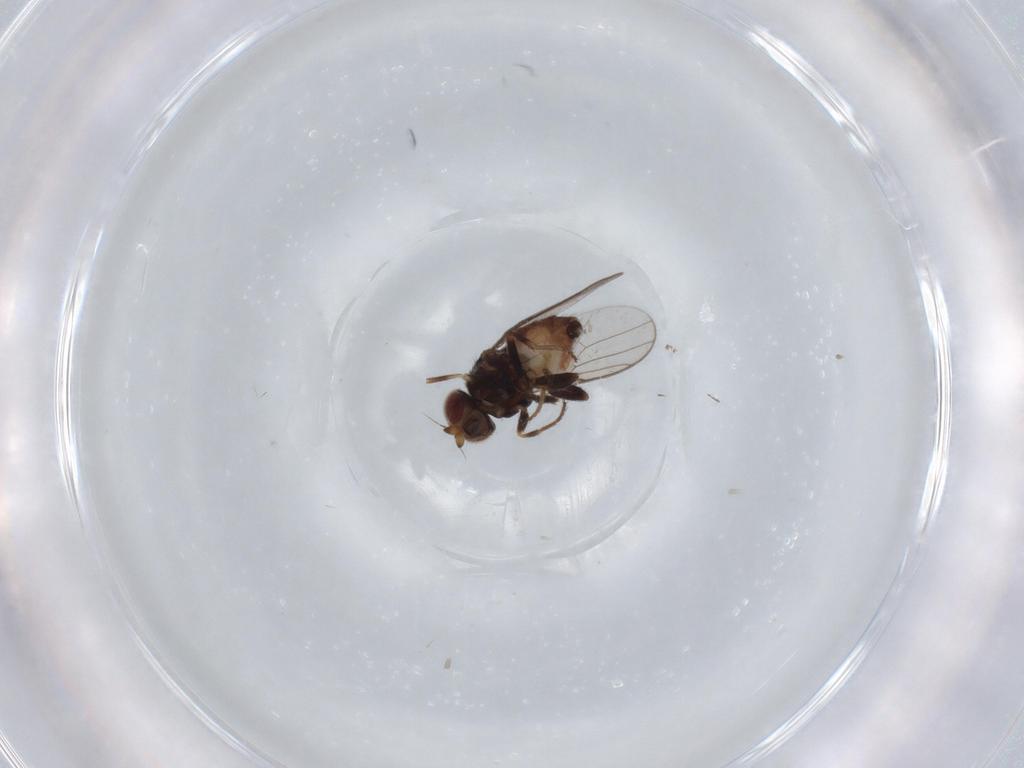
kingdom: Animalia
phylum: Arthropoda
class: Insecta
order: Diptera
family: Chloropidae
